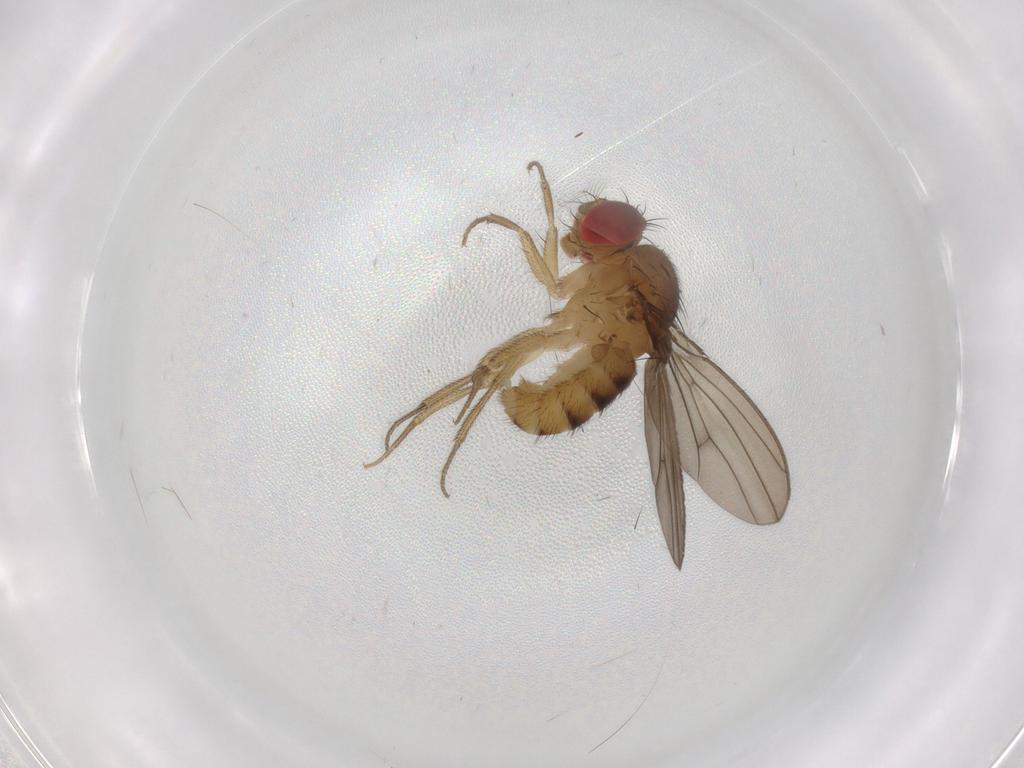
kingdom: Animalia
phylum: Arthropoda
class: Insecta
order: Diptera
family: Drosophilidae
